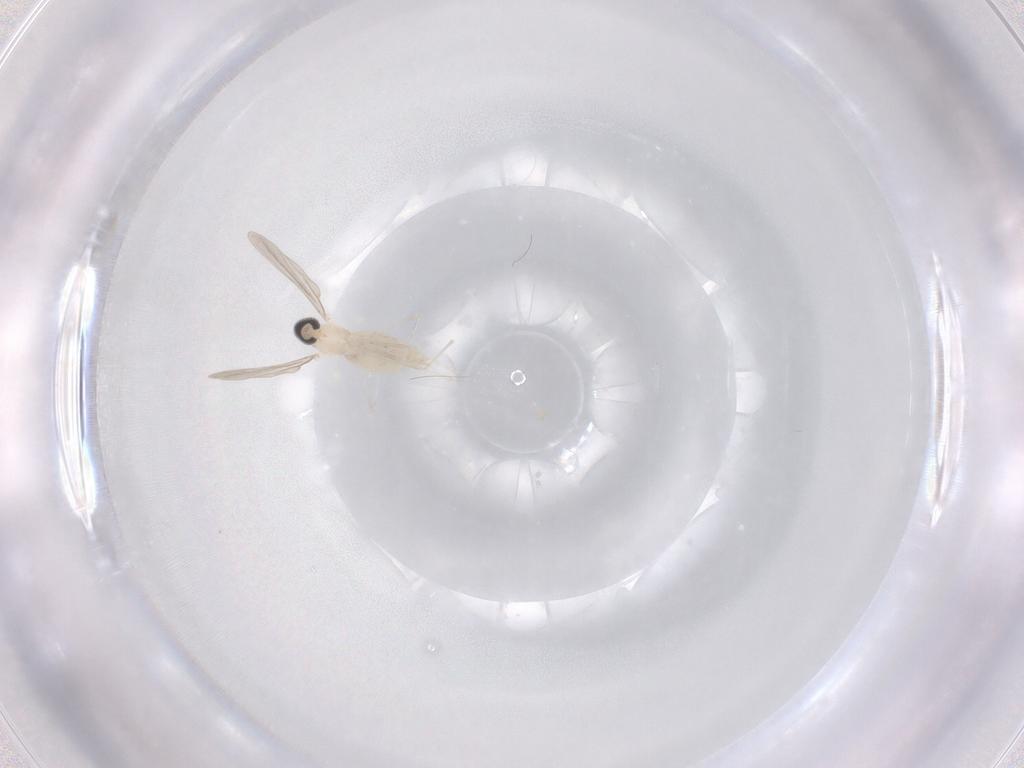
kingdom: Animalia
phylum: Arthropoda
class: Insecta
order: Diptera
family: Cecidomyiidae
